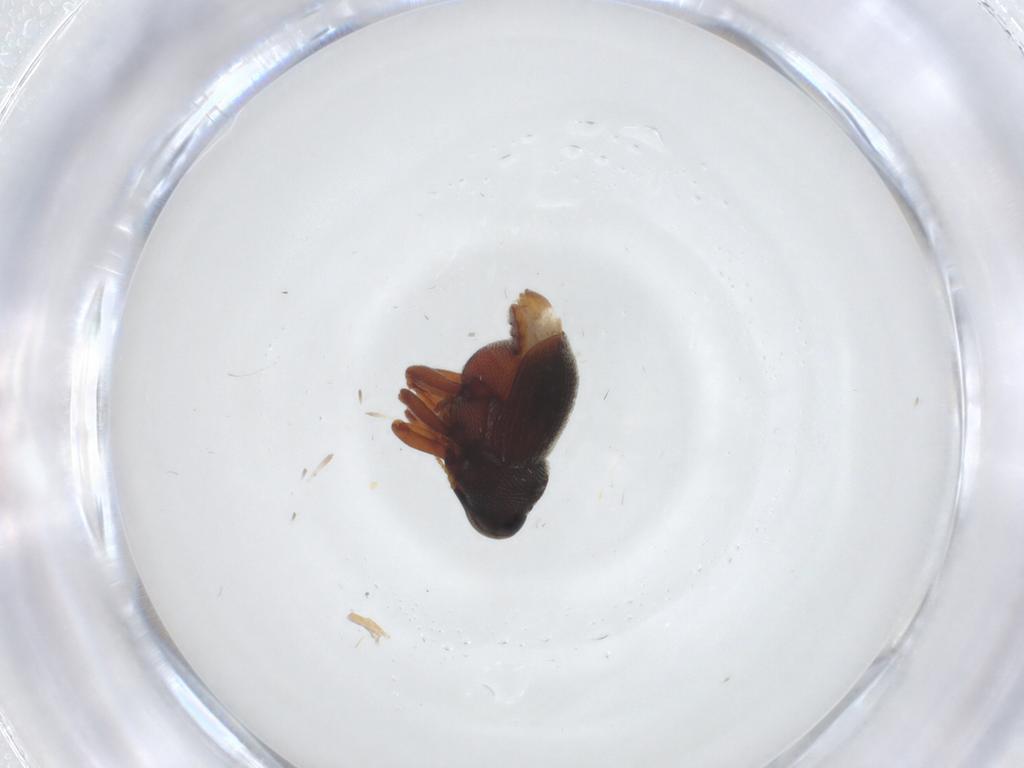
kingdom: Animalia
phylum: Arthropoda
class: Insecta
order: Coleoptera
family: Curculionidae
